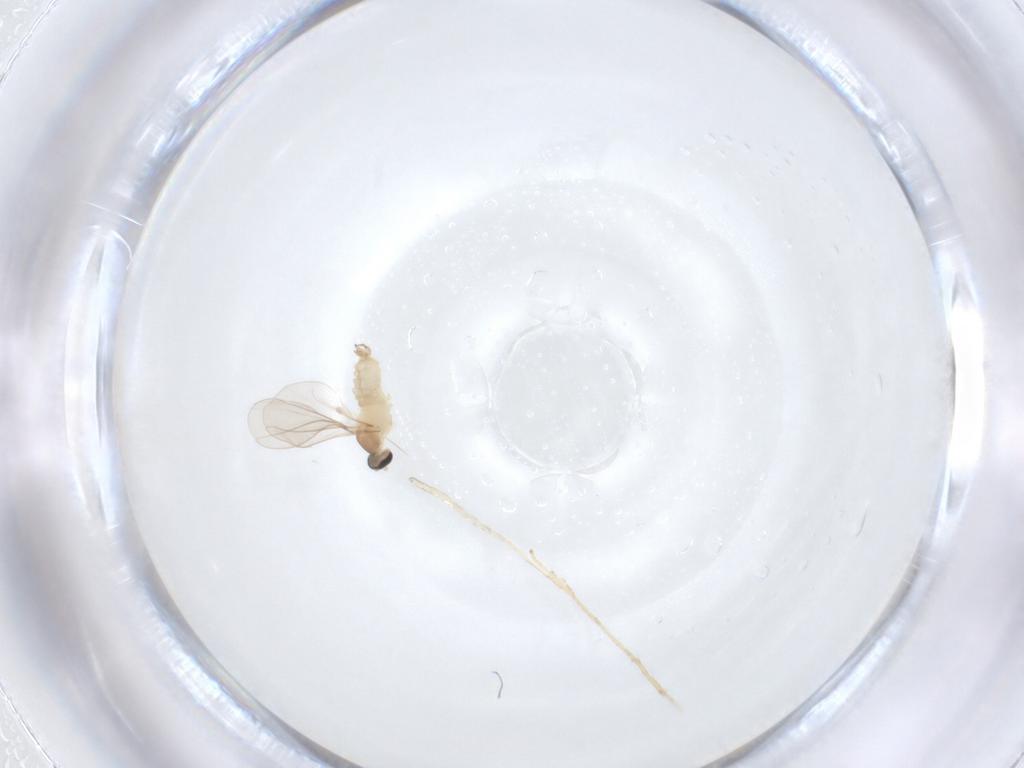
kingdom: Animalia
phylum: Arthropoda
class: Insecta
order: Diptera
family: Cecidomyiidae
